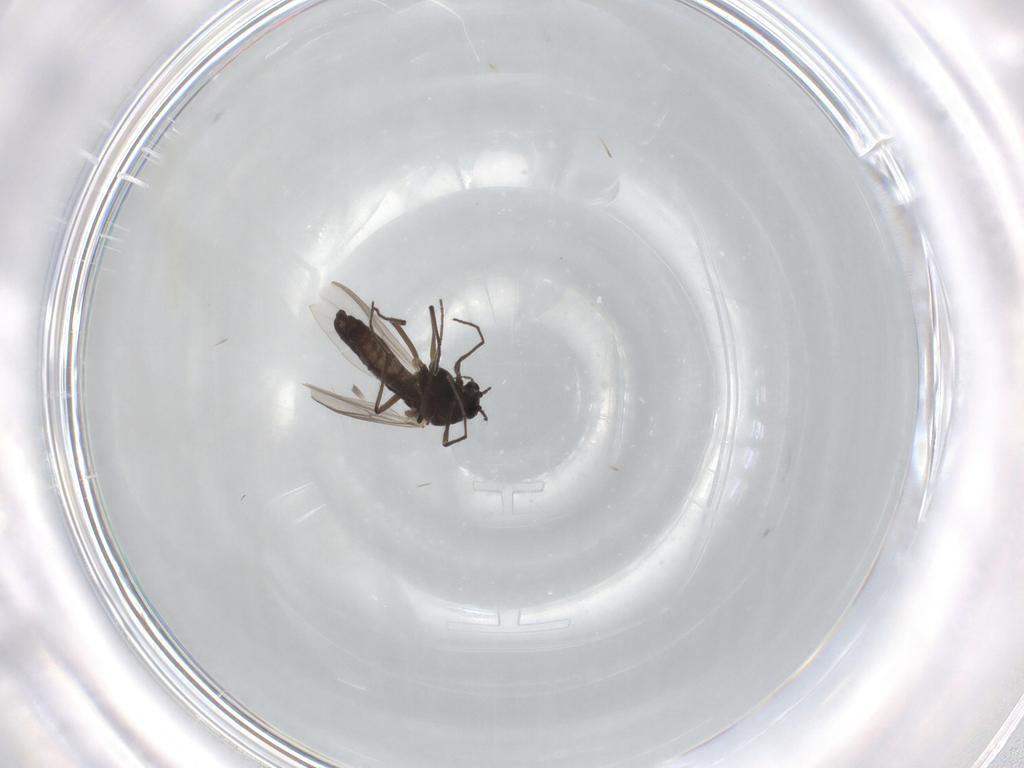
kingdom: Animalia
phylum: Arthropoda
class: Insecta
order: Diptera
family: Chironomidae
